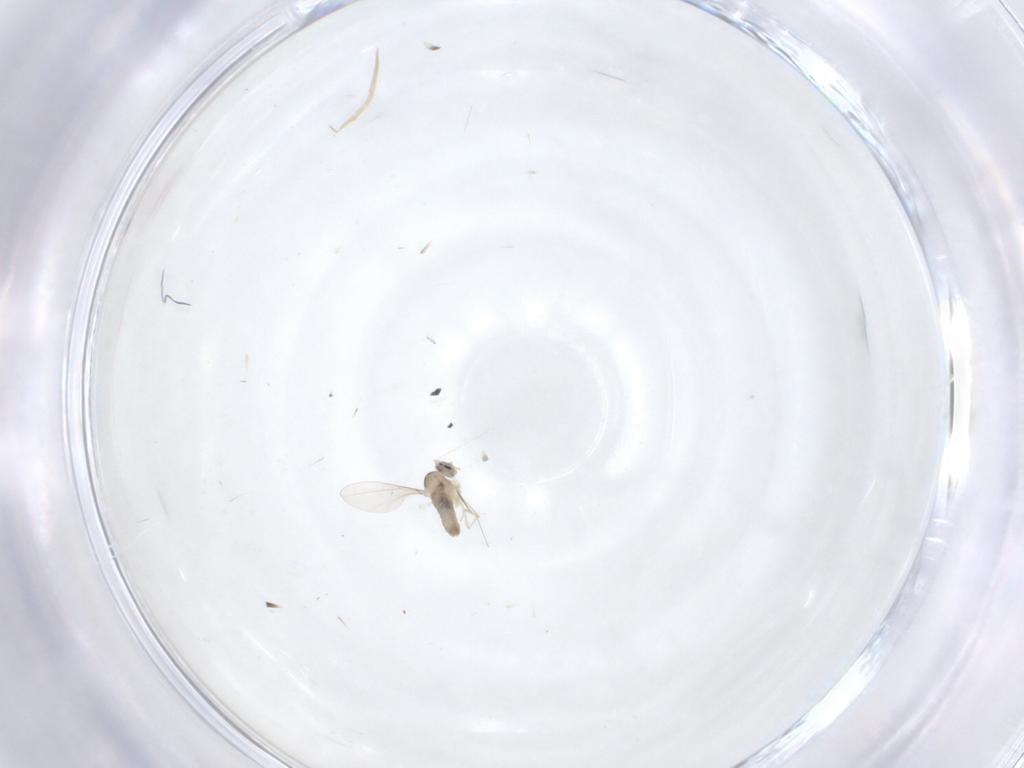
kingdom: Animalia
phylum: Arthropoda
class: Insecta
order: Diptera
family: Cecidomyiidae
